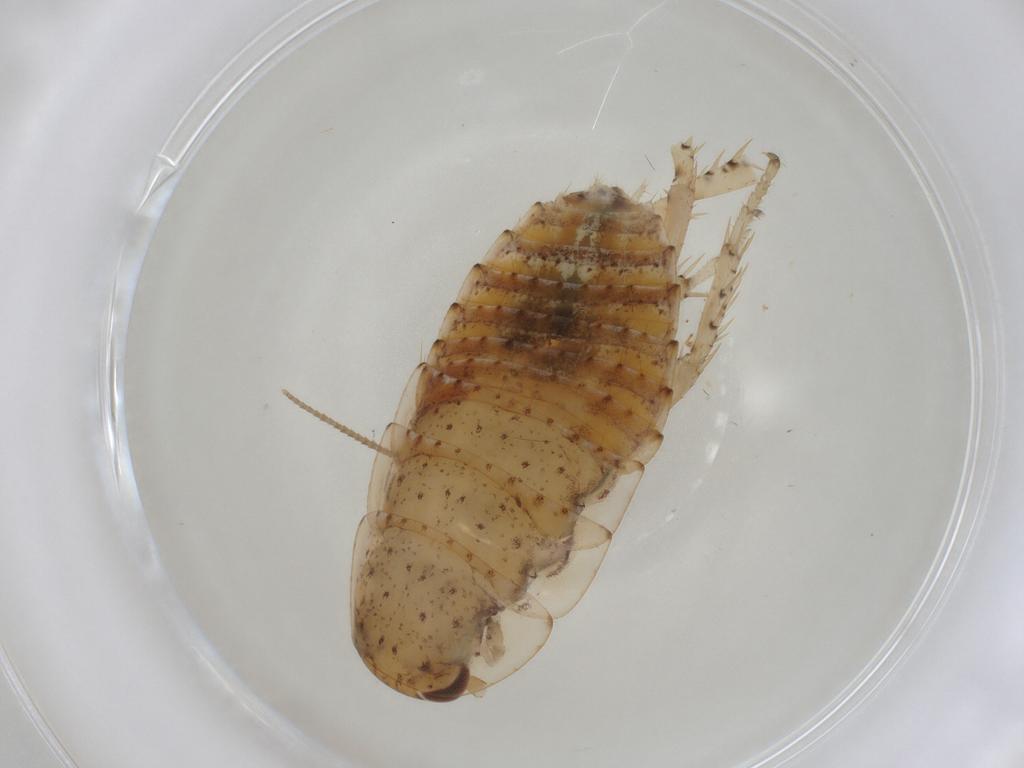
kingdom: Animalia
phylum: Arthropoda
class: Insecta
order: Blattodea
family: Blaberidae
